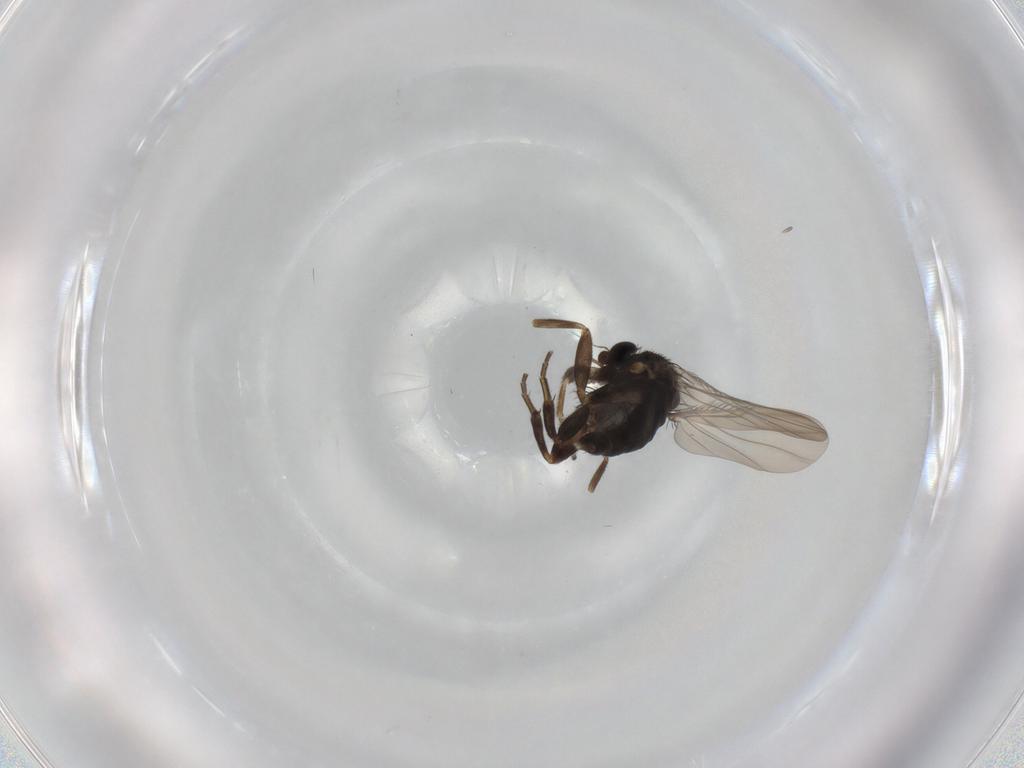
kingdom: Animalia
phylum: Arthropoda
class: Insecta
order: Diptera
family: Phoridae
